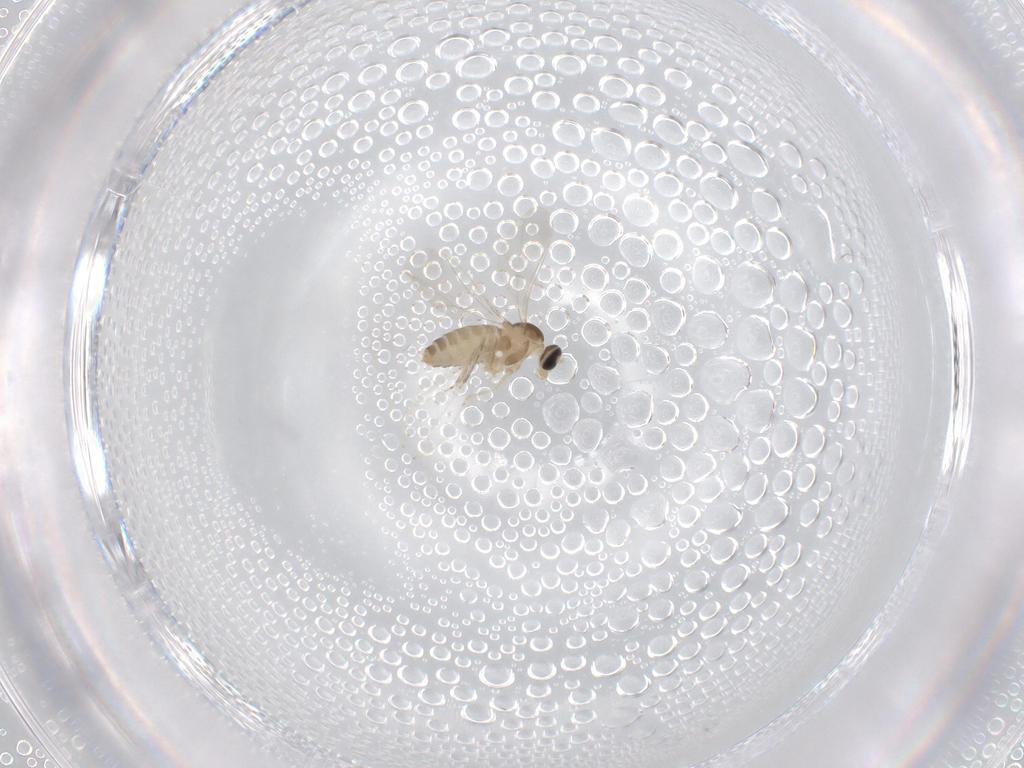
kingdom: Animalia
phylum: Arthropoda
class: Insecta
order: Diptera
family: Cecidomyiidae
